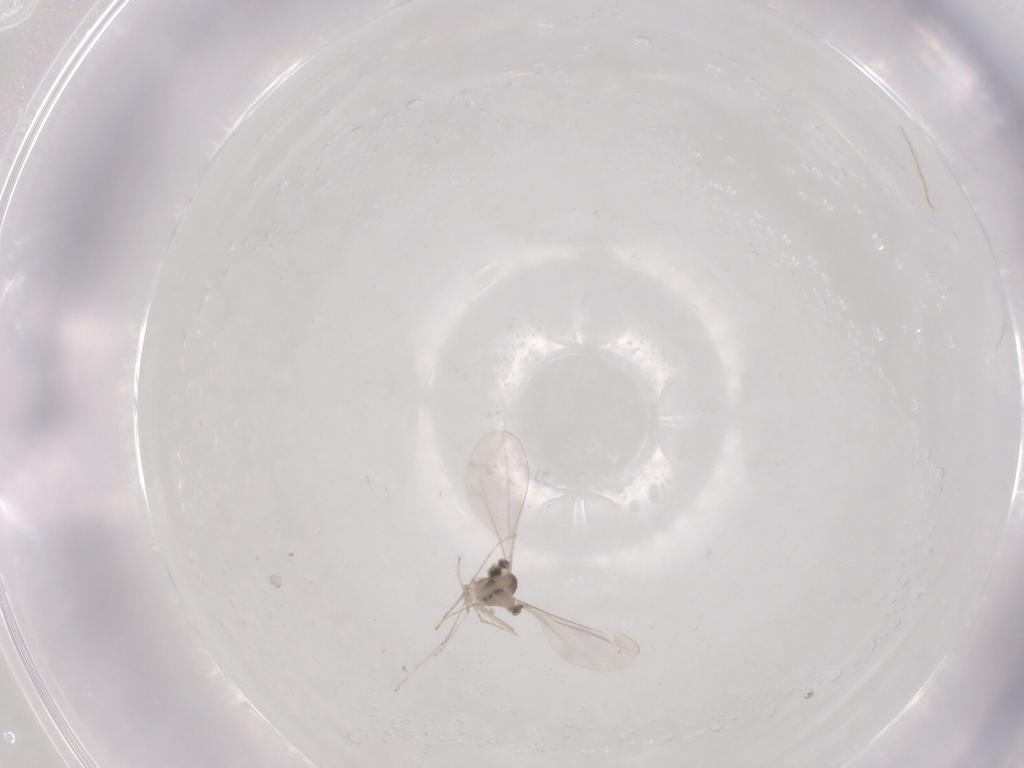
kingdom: Animalia
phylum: Arthropoda
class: Insecta
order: Diptera
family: Cecidomyiidae
